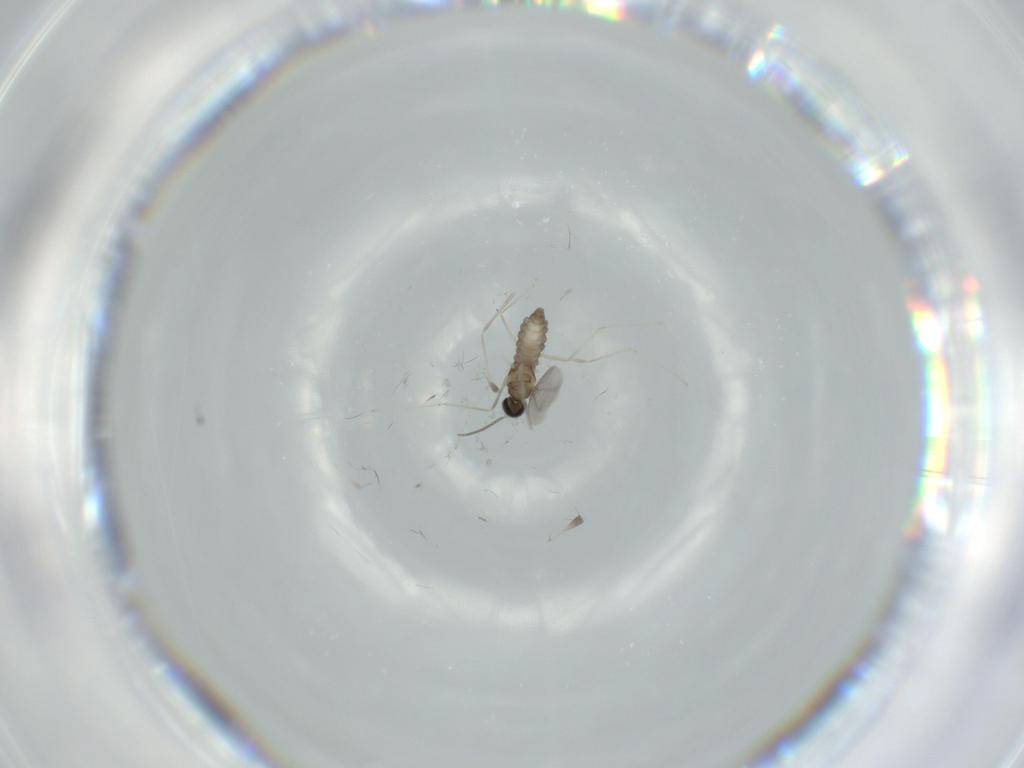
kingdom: Animalia
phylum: Arthropoda
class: Insecta
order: Diptera
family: Cecidomyiidae
